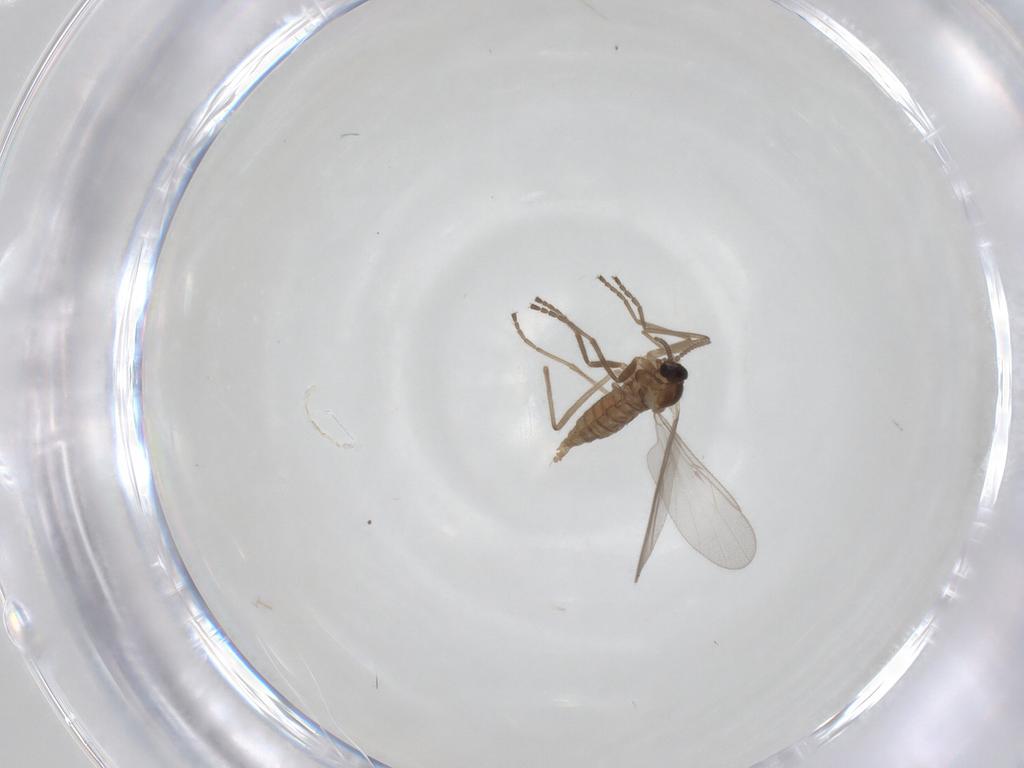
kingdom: Animalia
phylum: Arthropoda
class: Insecta
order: Diptera
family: Cecidomyiidae
